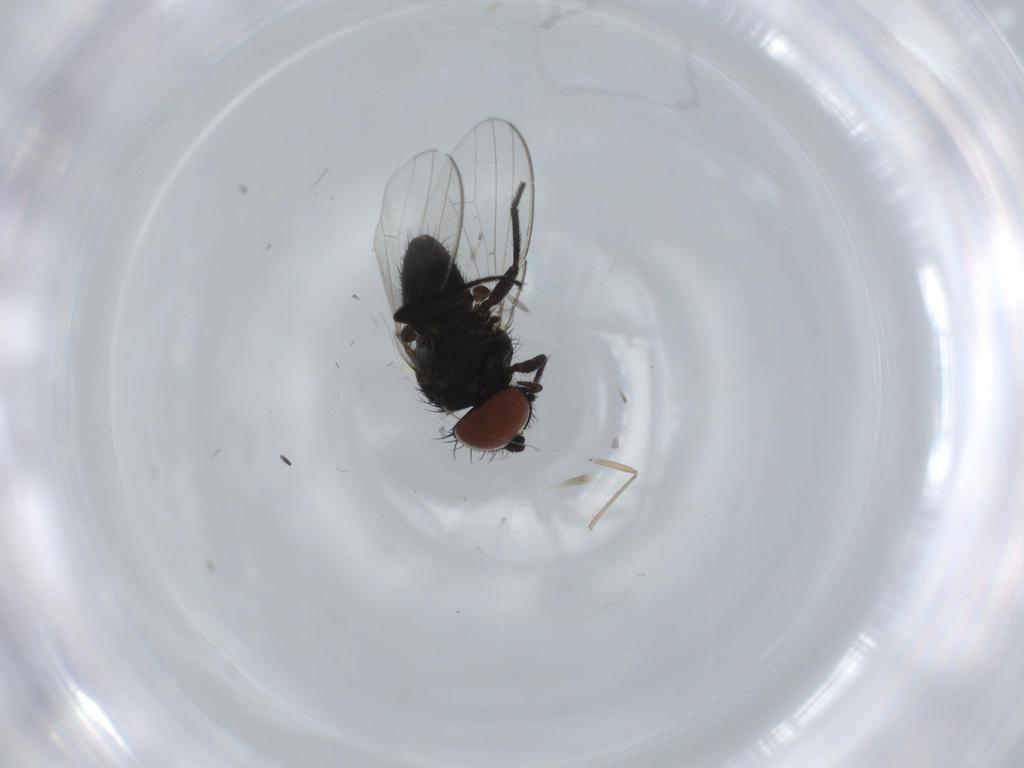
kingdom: Animalia
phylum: Arthropoda
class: Insecta
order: Diptera
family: Milichiidae
